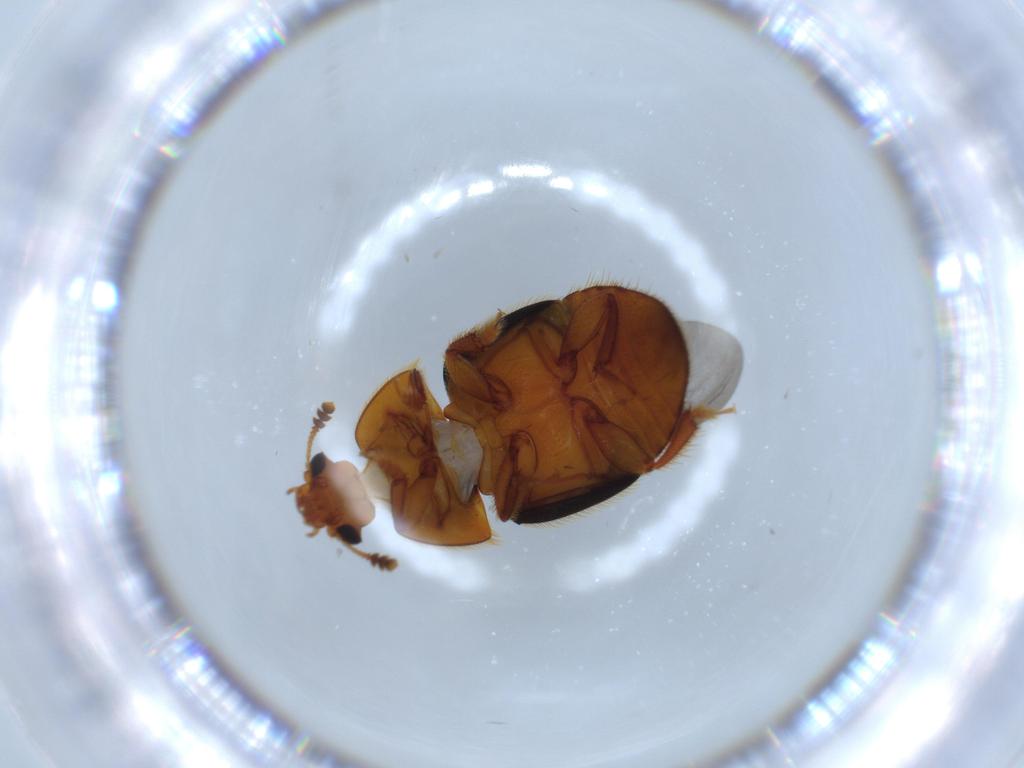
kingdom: Animalia
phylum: Arthropoda
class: Insecta
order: Coleoptera
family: Nitidulidae
